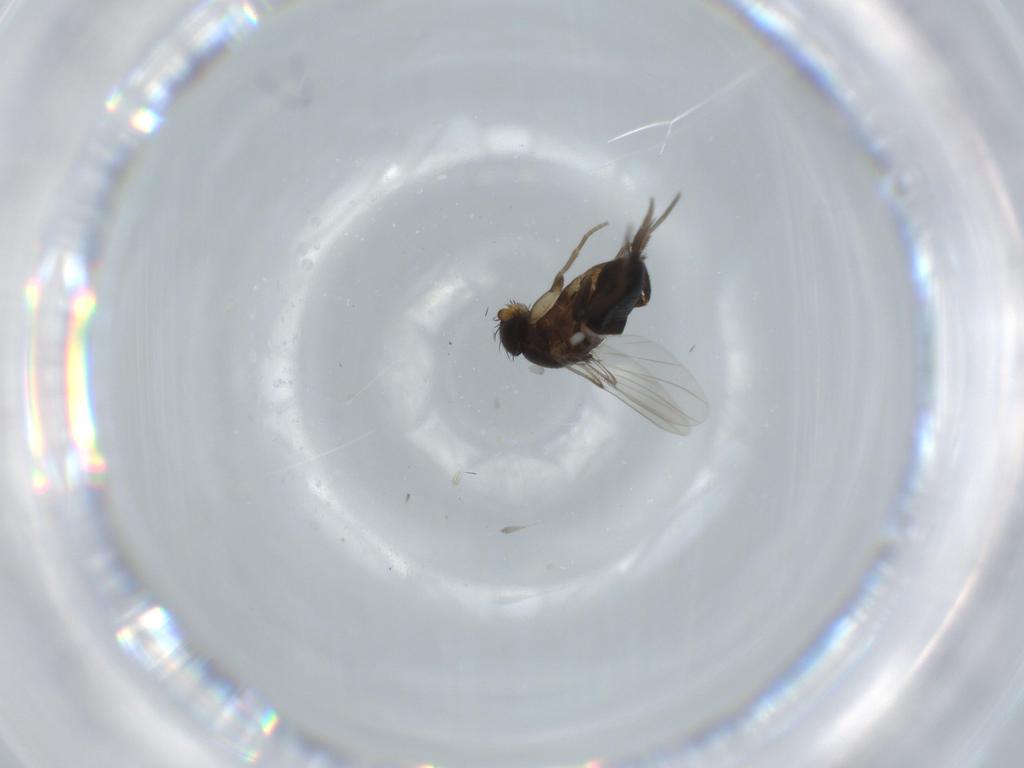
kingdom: Animalia
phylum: Arthropoda
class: Insecta
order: Diptera
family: Phoridae
